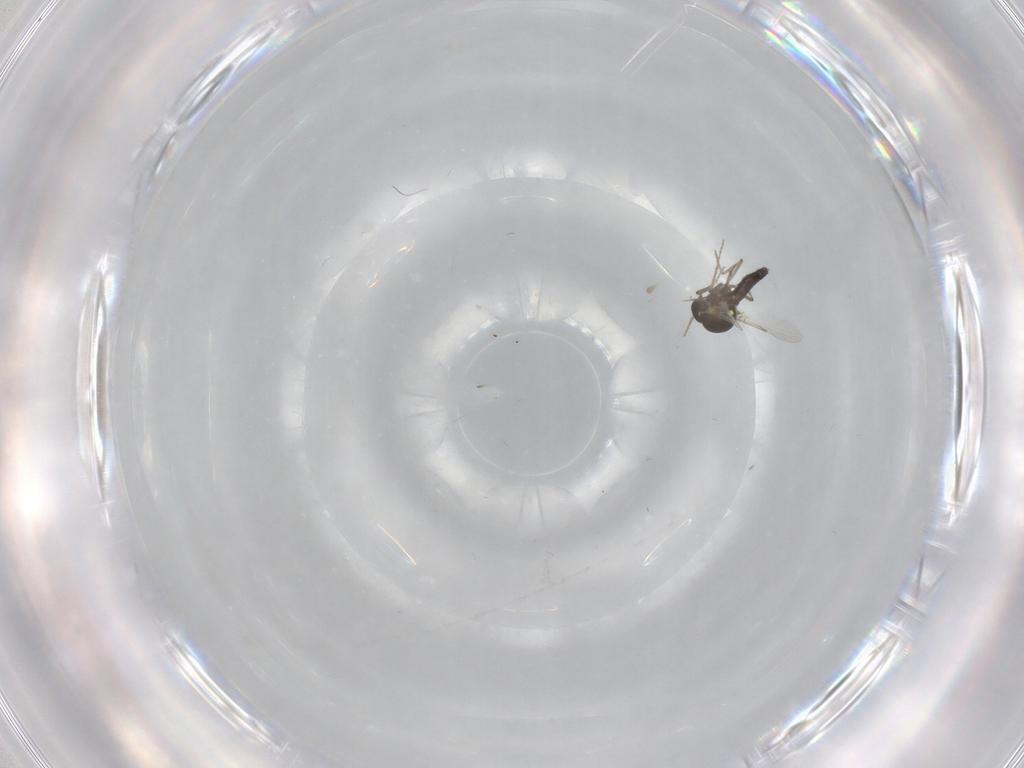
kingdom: Animalia
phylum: Arthropoda
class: Insecta
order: Diptera
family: Ceratopogonidae
